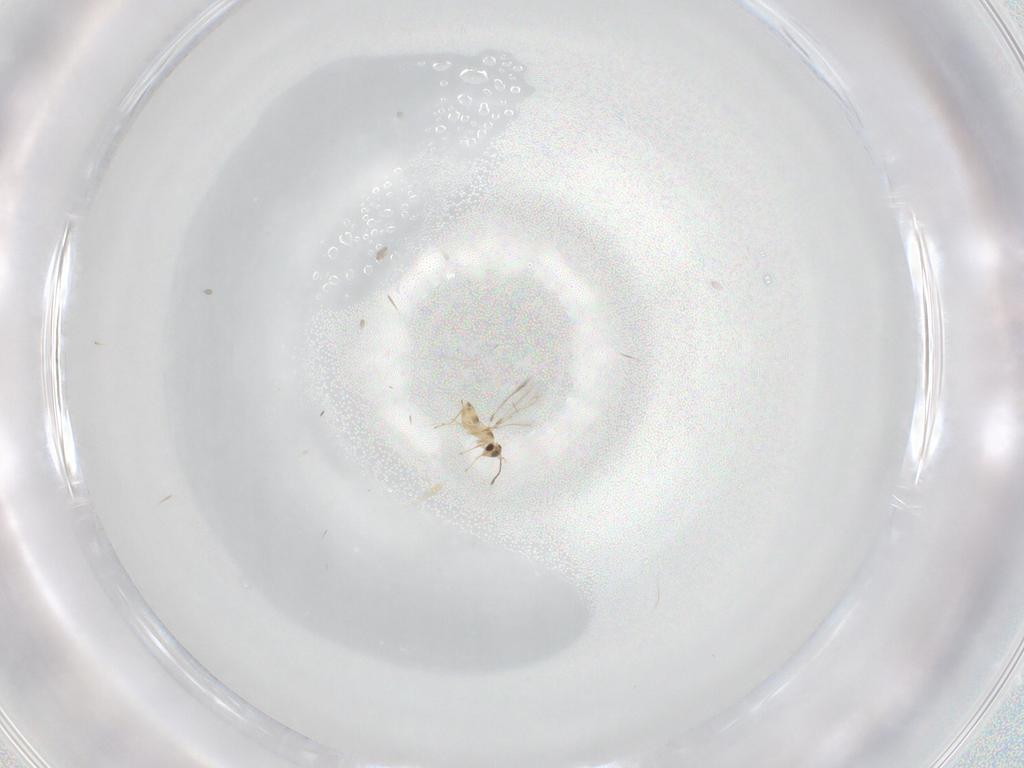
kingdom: Animalia
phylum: Arthropoda
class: Insecta
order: Hymenoptera
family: Mymaridae
